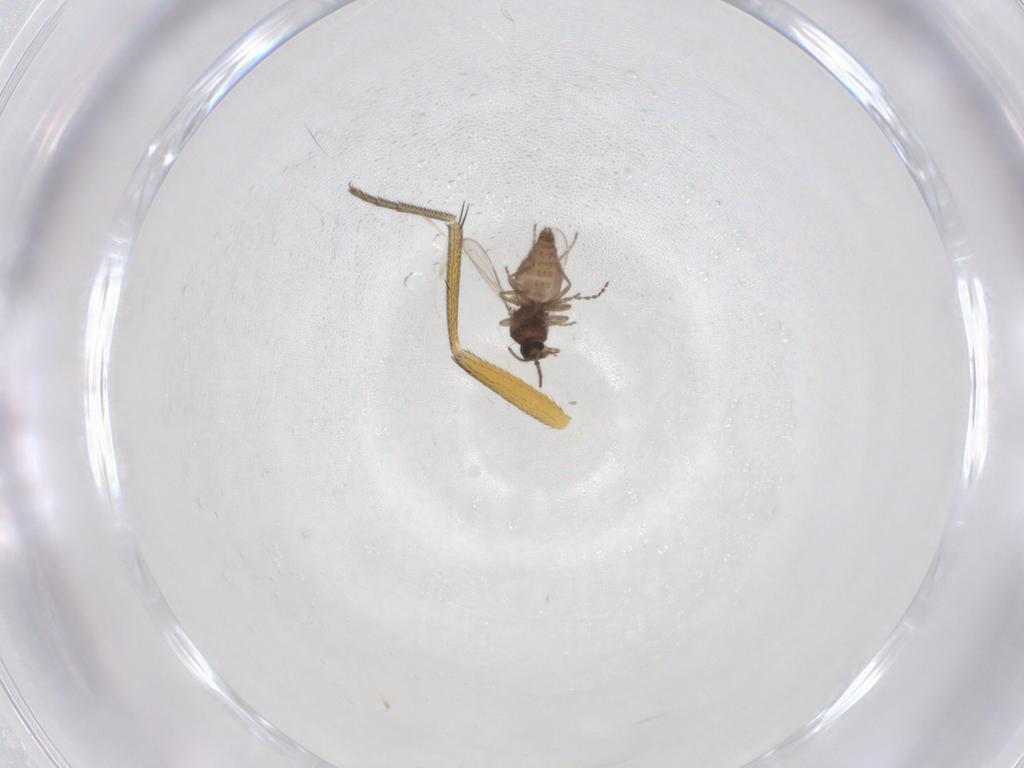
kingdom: Animalia
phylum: Arthropoda
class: Insecta
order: Diptera
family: Ceratopogonidae
